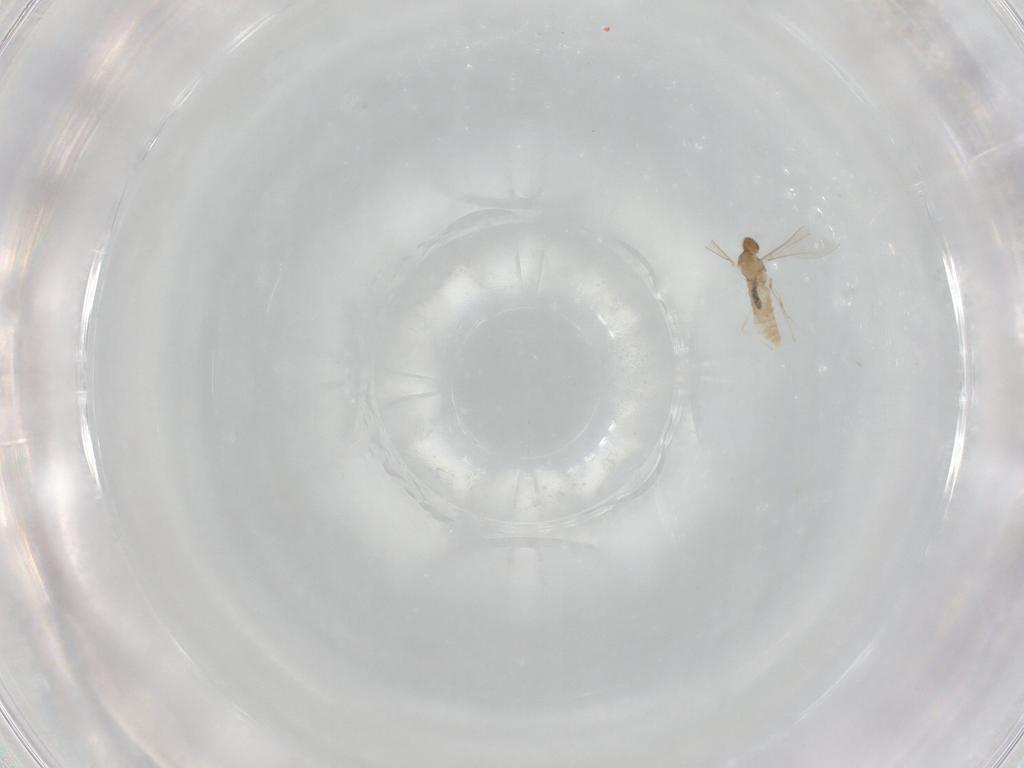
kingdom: Animalia
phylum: Arthropoda
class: Insecta
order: Diptera
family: Cecidomyiidae
